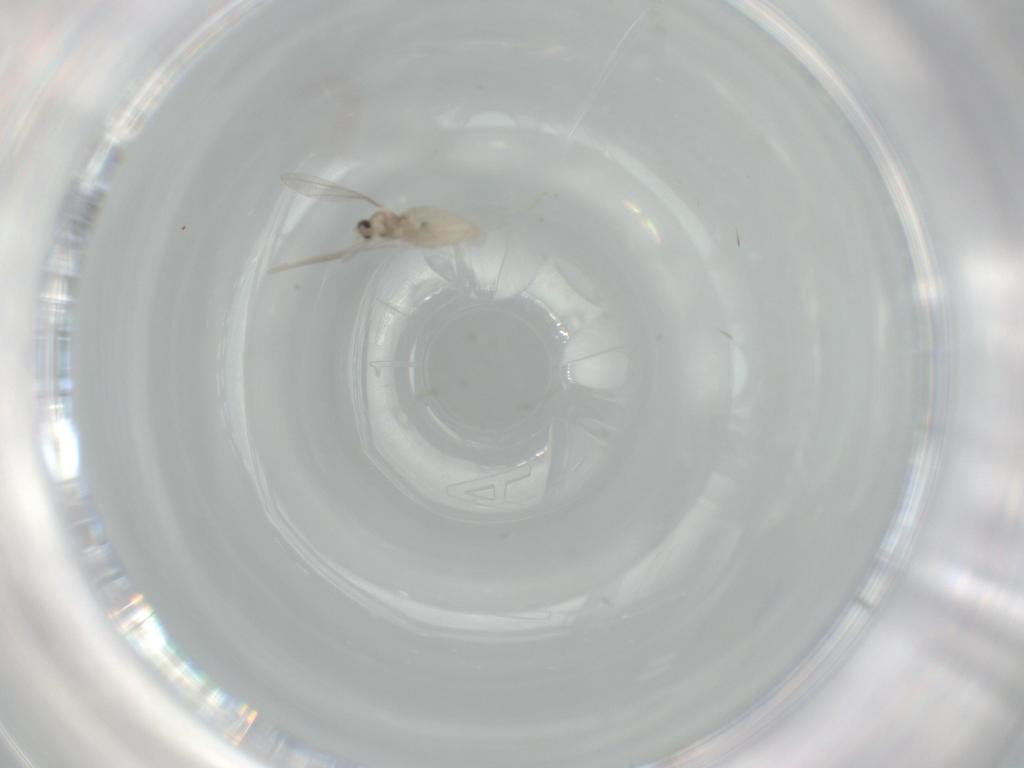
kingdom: Animalia
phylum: Arthropoda
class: Insecta
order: Diptera
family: Cecidomyiidae
